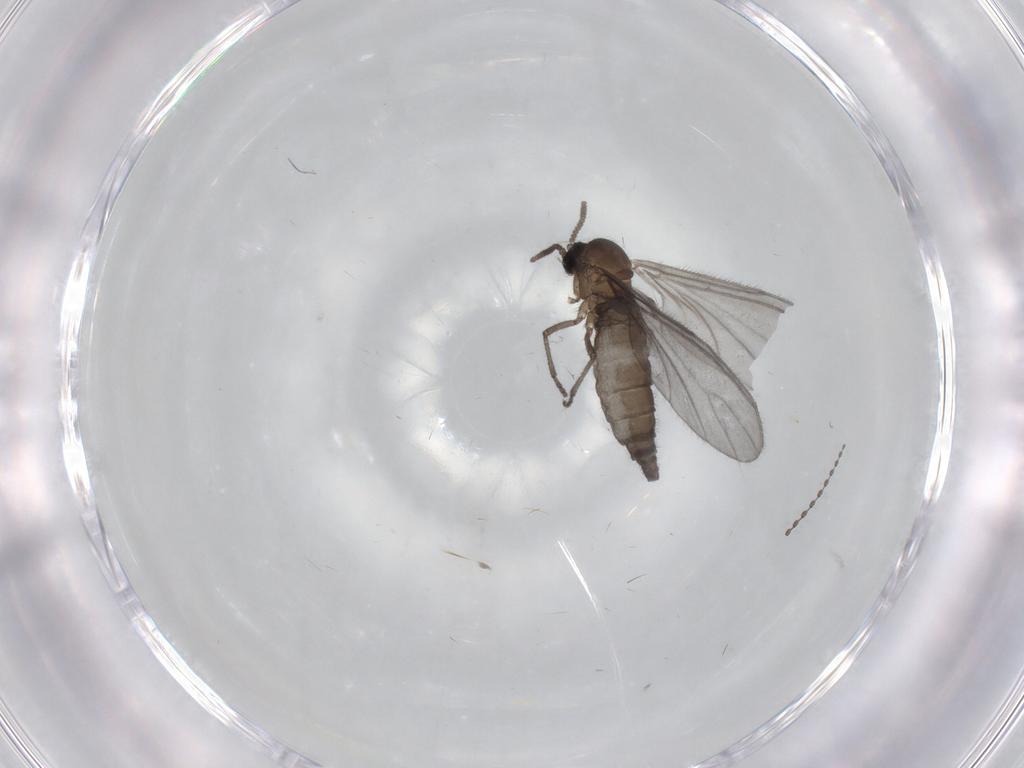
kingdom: Animalia
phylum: Arthropoda
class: Insecta
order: Diptera
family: Sciaridae
